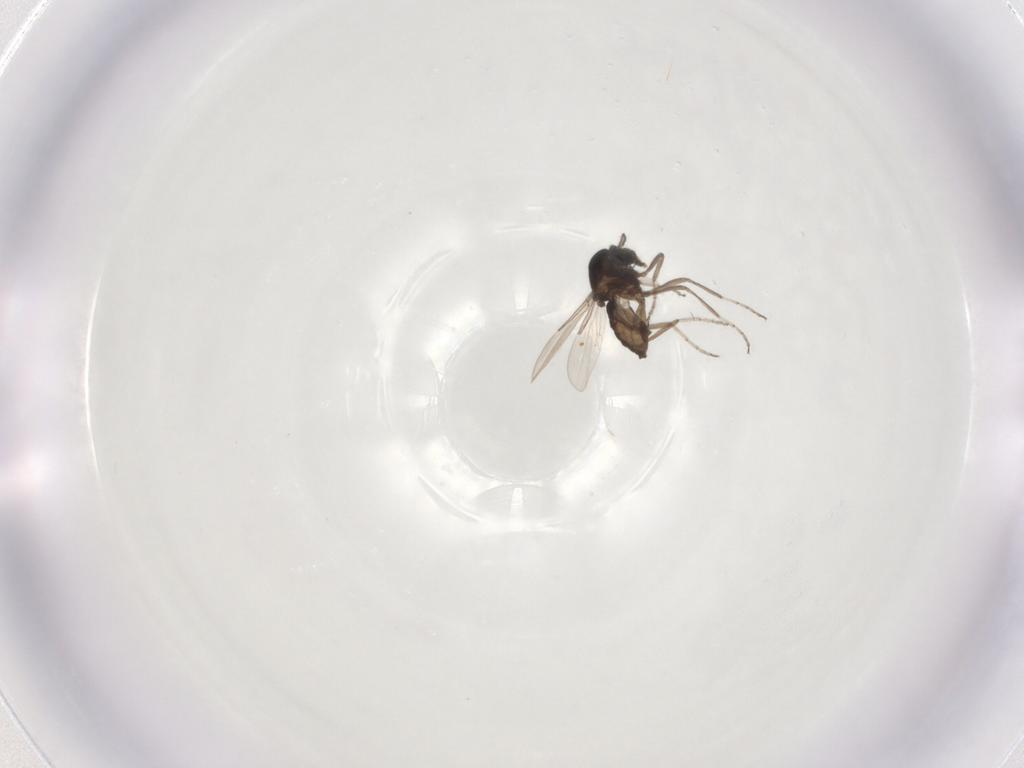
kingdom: Animalia
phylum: Arthropoda
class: Insecta
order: Diptera
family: Ceratopogonidae
